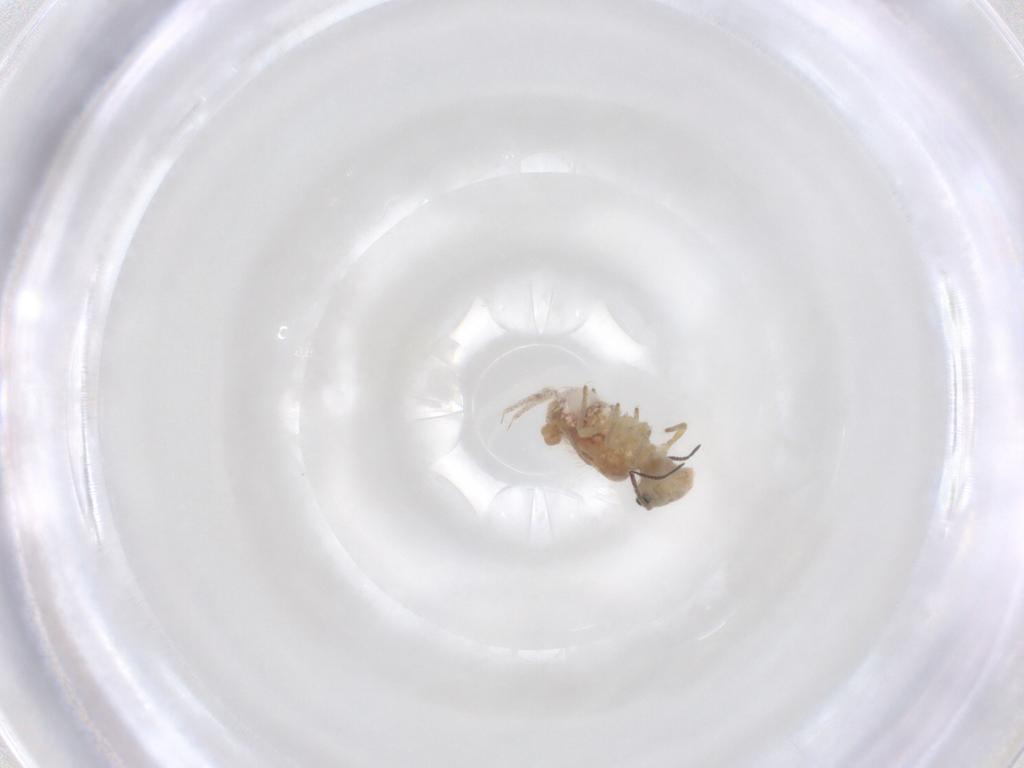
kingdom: Animalia
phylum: Arthropoda
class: Collembola
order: Symphypleona
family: Sminthuridae
